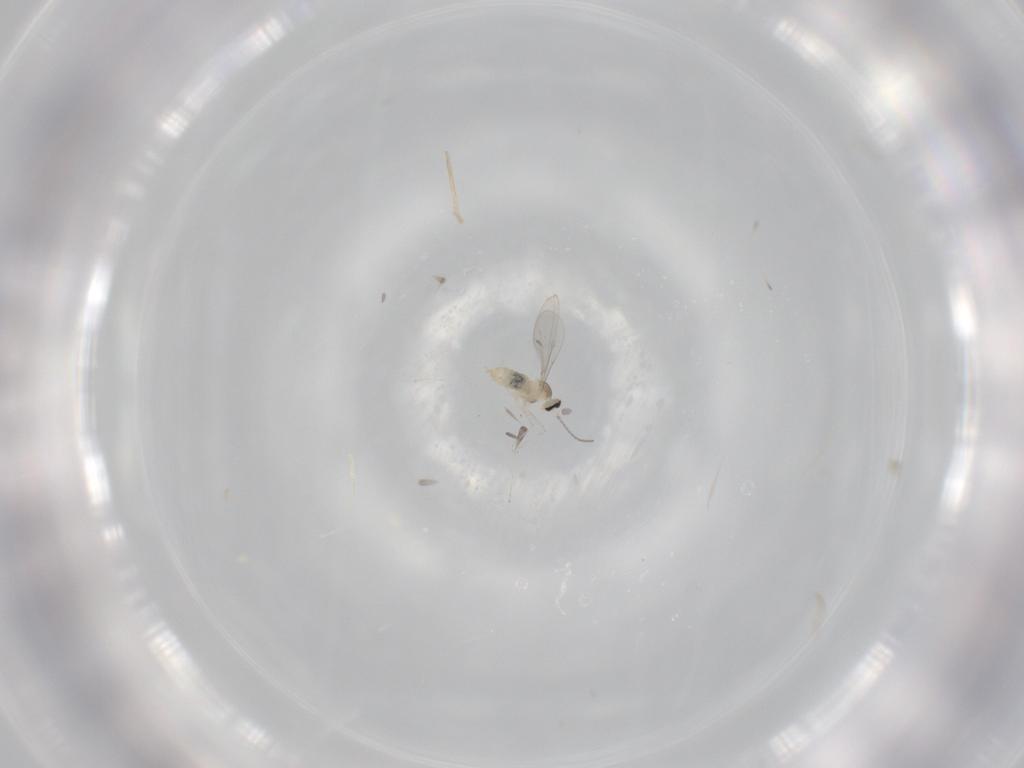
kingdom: Animalia
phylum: Arthropoda
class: Insecta
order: Diptera
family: Cecidomyiidae
